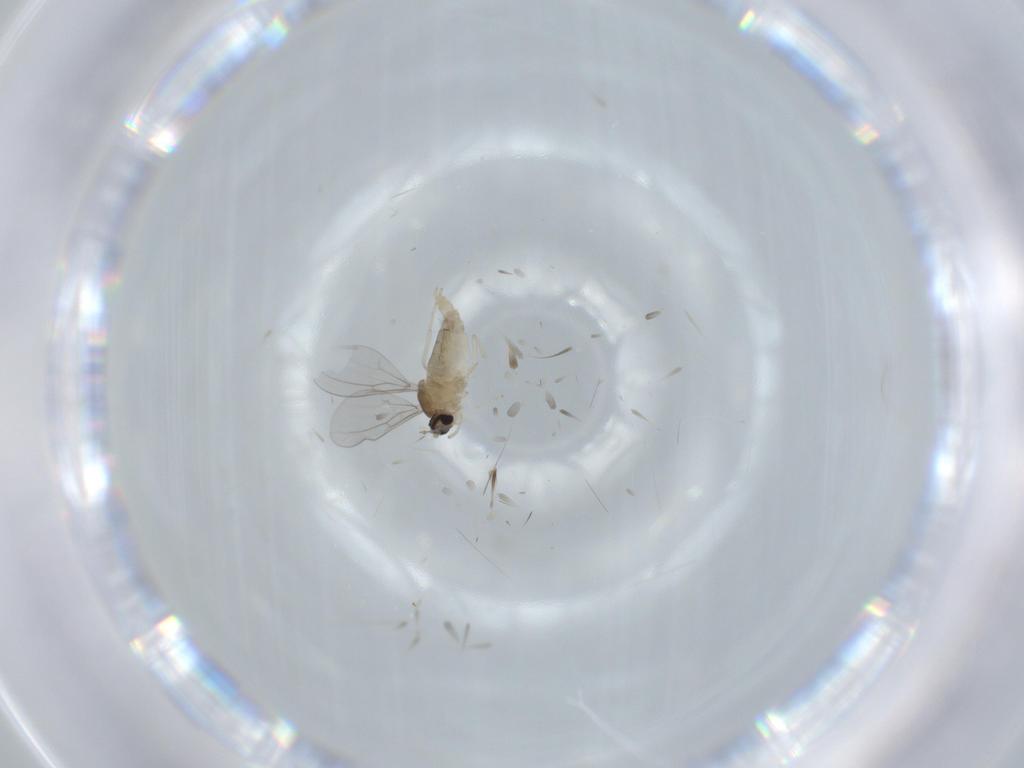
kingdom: Animalia
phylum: Arthropoda
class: Insecta
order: Diptera
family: Cecidomyiidae
